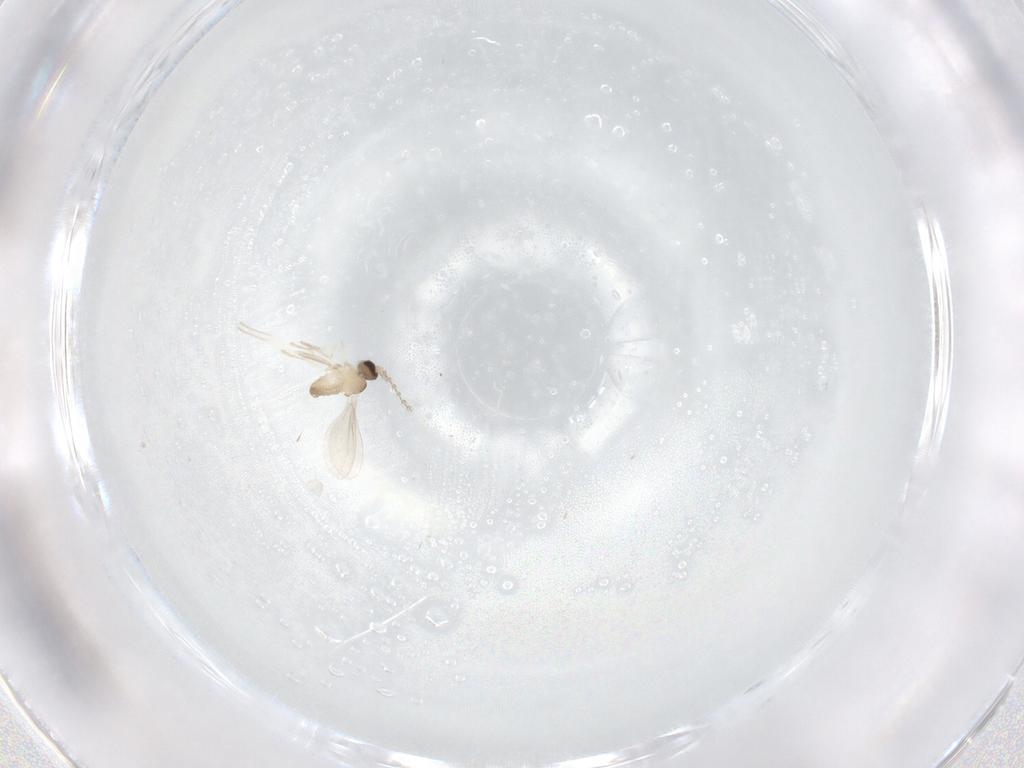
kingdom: Animalia
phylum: Arthropoda
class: Insecta
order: Diptera
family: Cecidomyiidae
